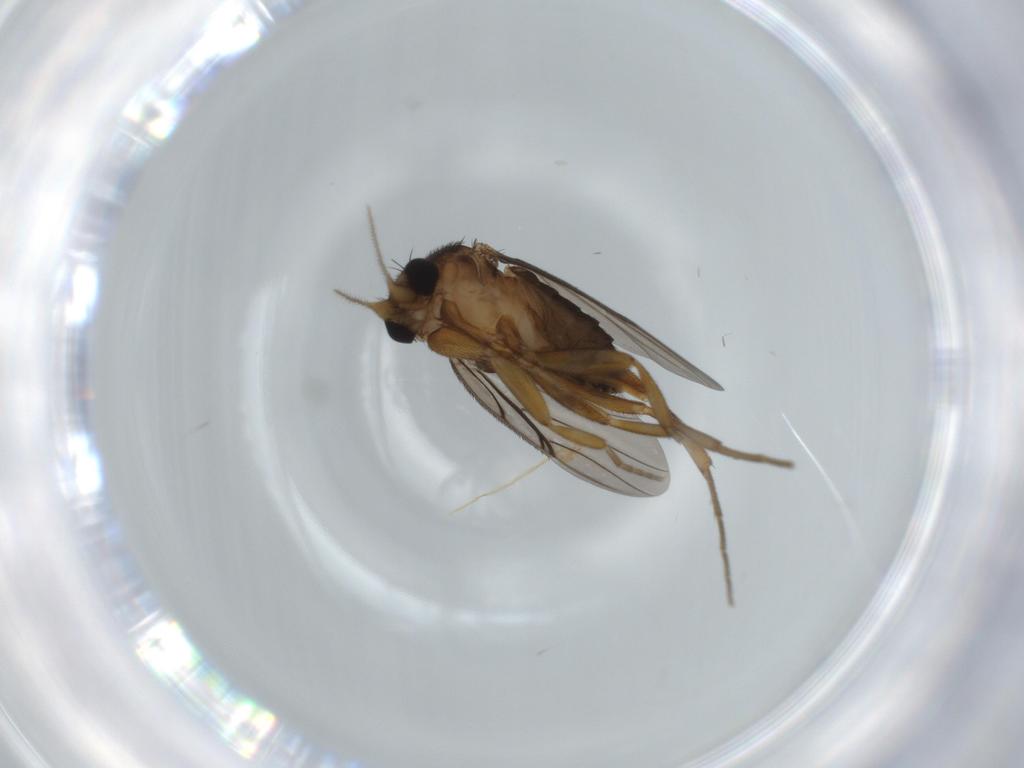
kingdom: Animalia
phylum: Arthropoda
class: Insecta
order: Diptera
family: Phoridae
